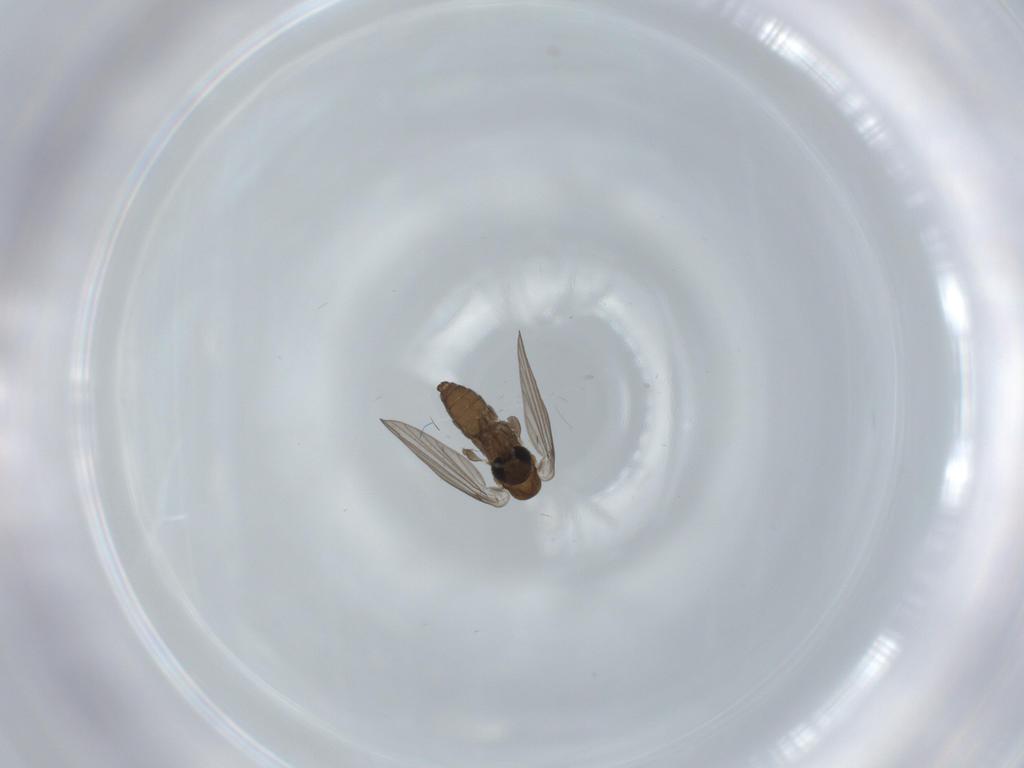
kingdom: Animalia
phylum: Arthropoda
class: Insecta
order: Diptera
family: Psychodidae
